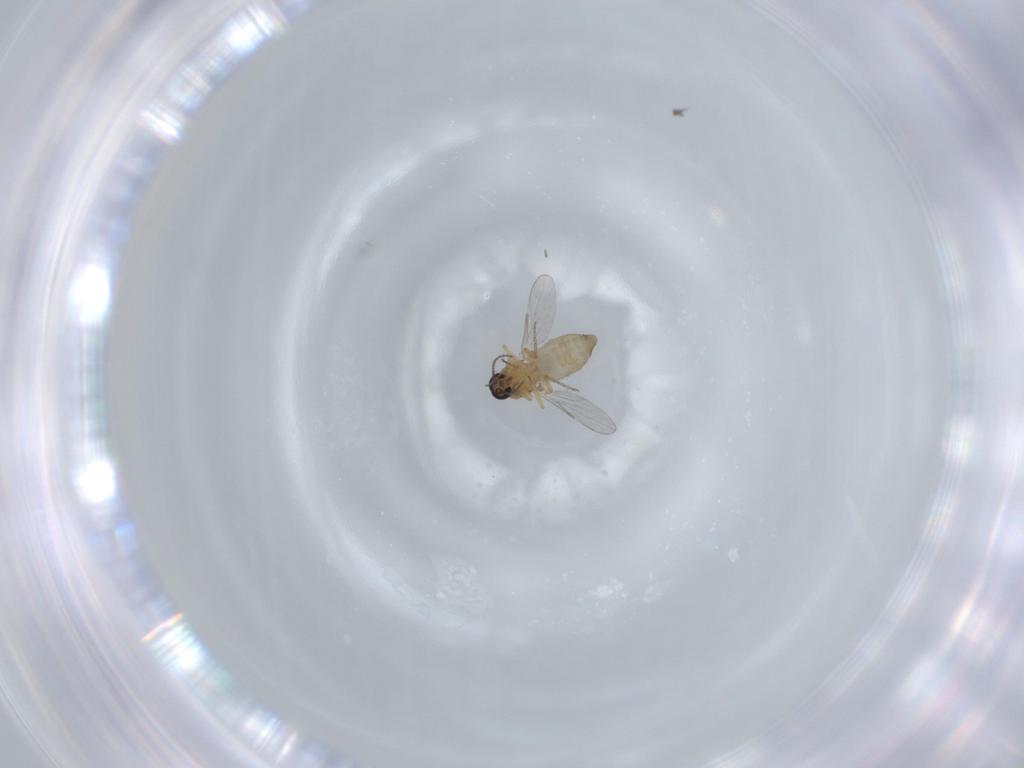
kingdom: Animalia
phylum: Arthropoda
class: Insecta
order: Diptera
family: Ceratopogonidae
